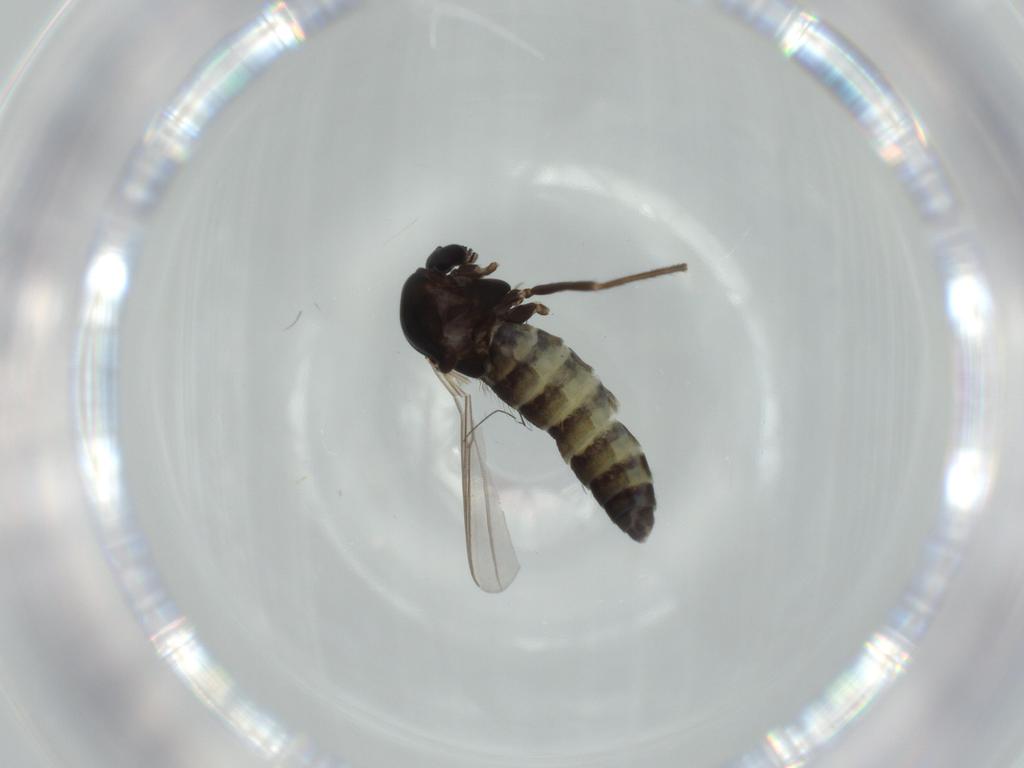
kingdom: Animalia
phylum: Arthropoda
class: Insecta
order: Diptera
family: Chironomidae
